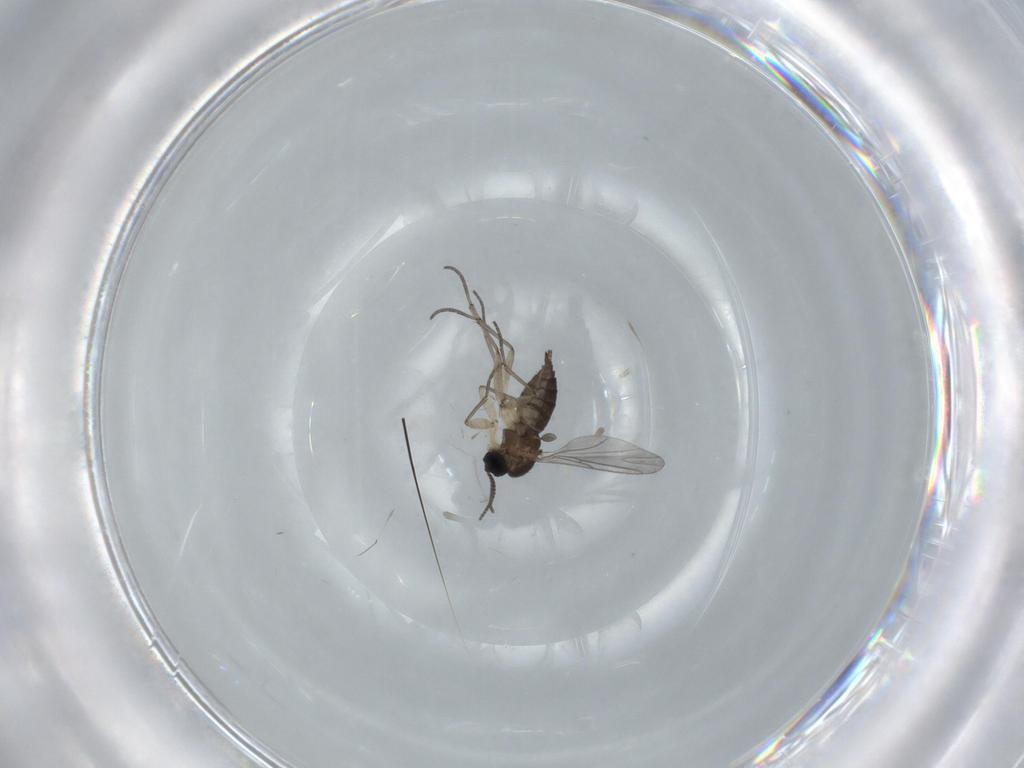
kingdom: Animalia
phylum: Arthropoda
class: Insecta
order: Diptera
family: Sciaridae
